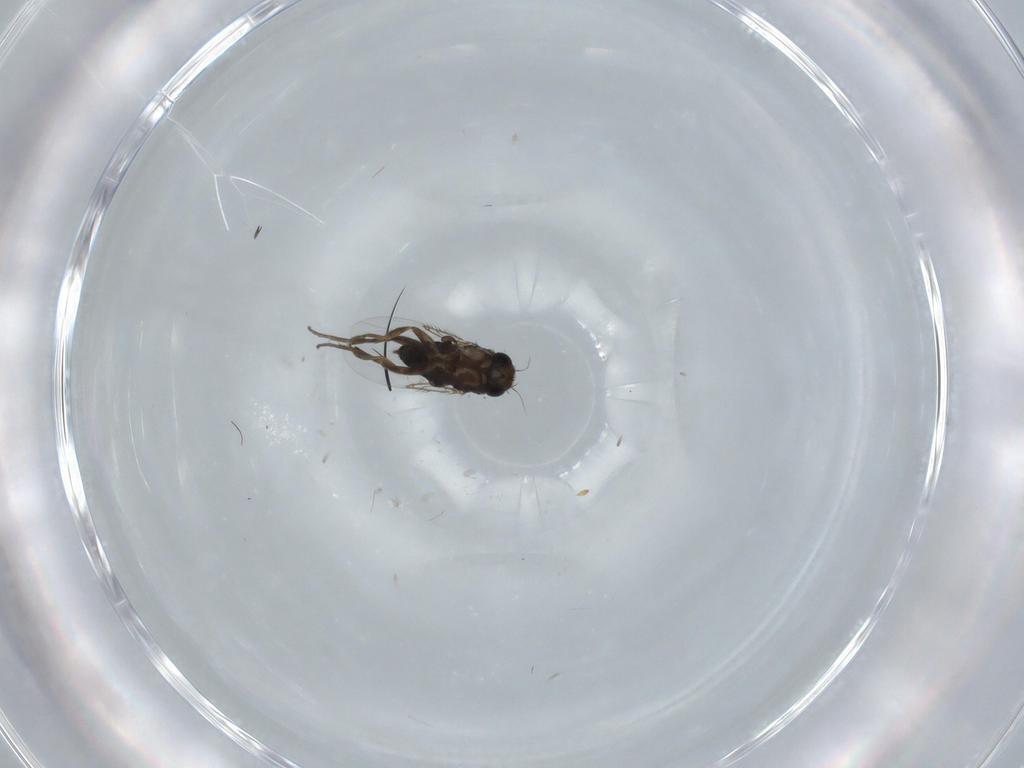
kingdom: Animalia
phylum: Arthropoda
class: Insecta
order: Diptera
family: Phoridae
